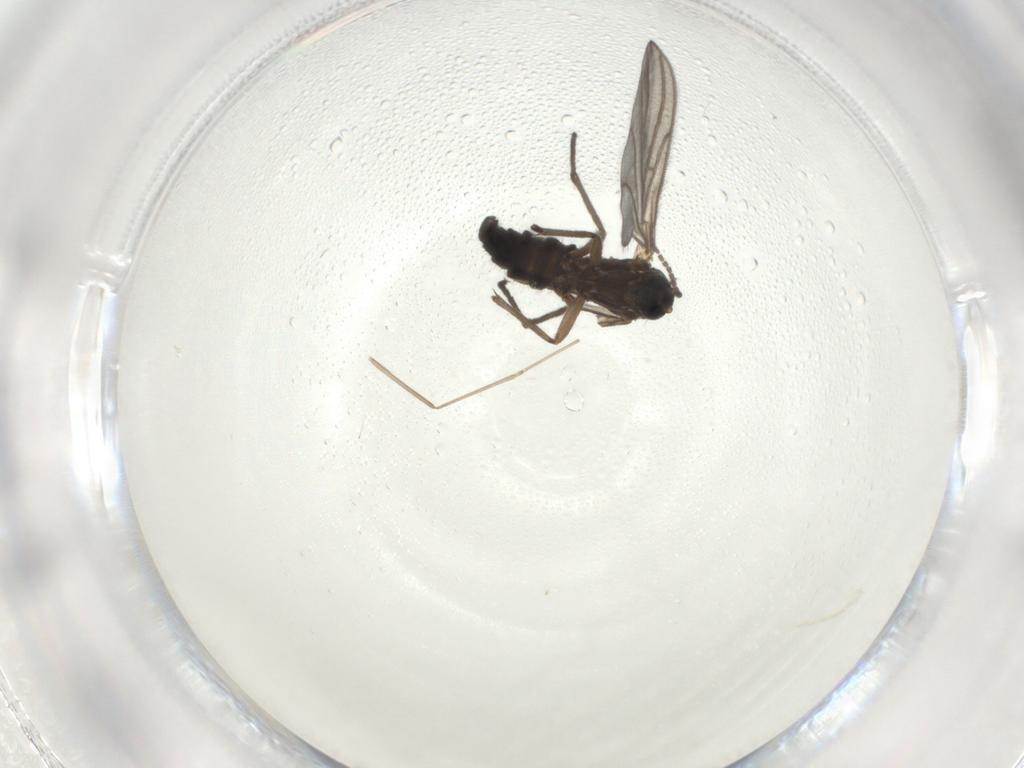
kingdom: Animalia
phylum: Arthropoda
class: Insecta
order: Diptera
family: Sciaridae
